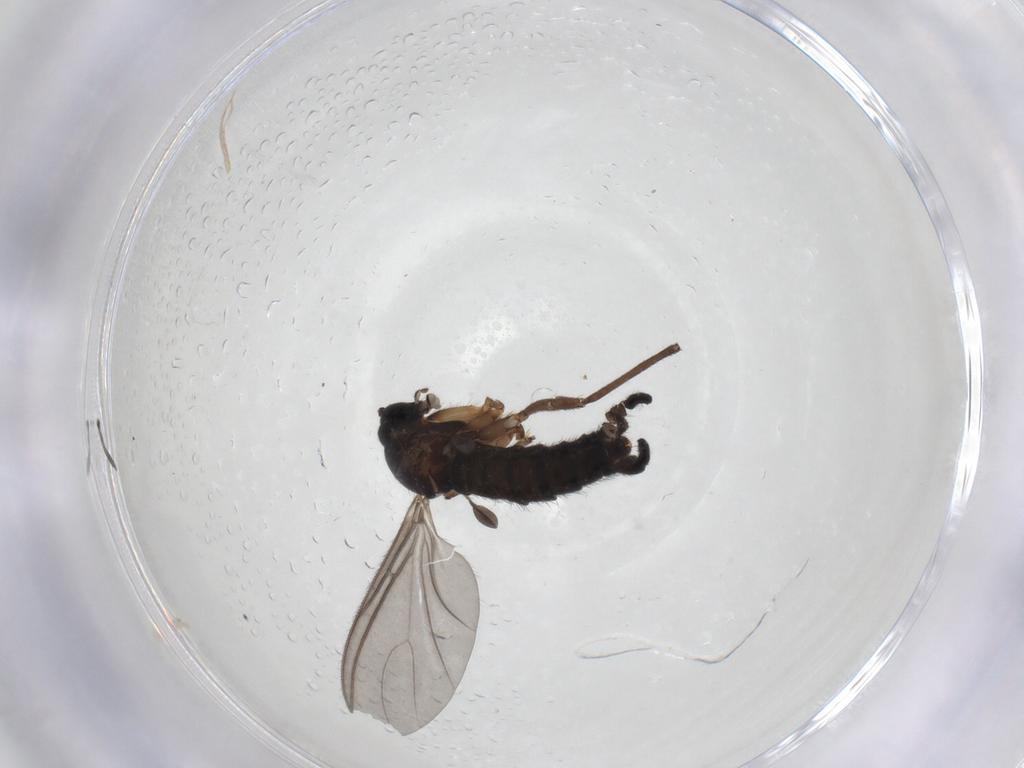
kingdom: Animalia
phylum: Arthropoda
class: Insecta
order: Diptera
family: Sciaridae
